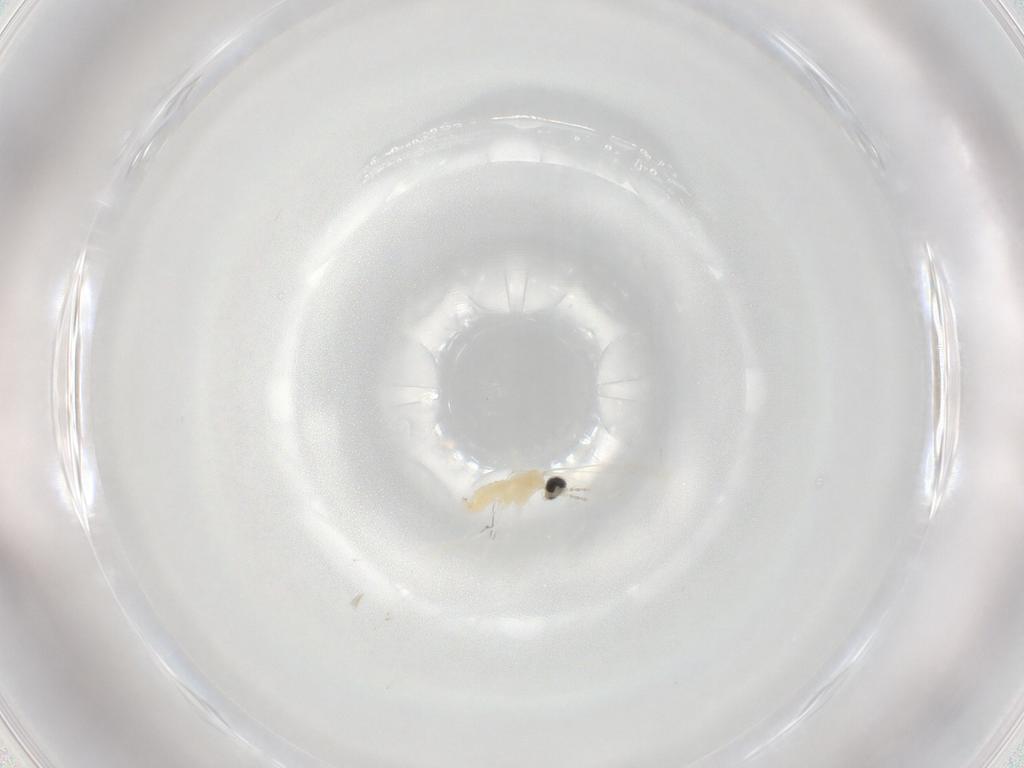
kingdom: Animalia
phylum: Arthropoda
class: Insecta
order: Diptera
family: Cecidomyiidae
